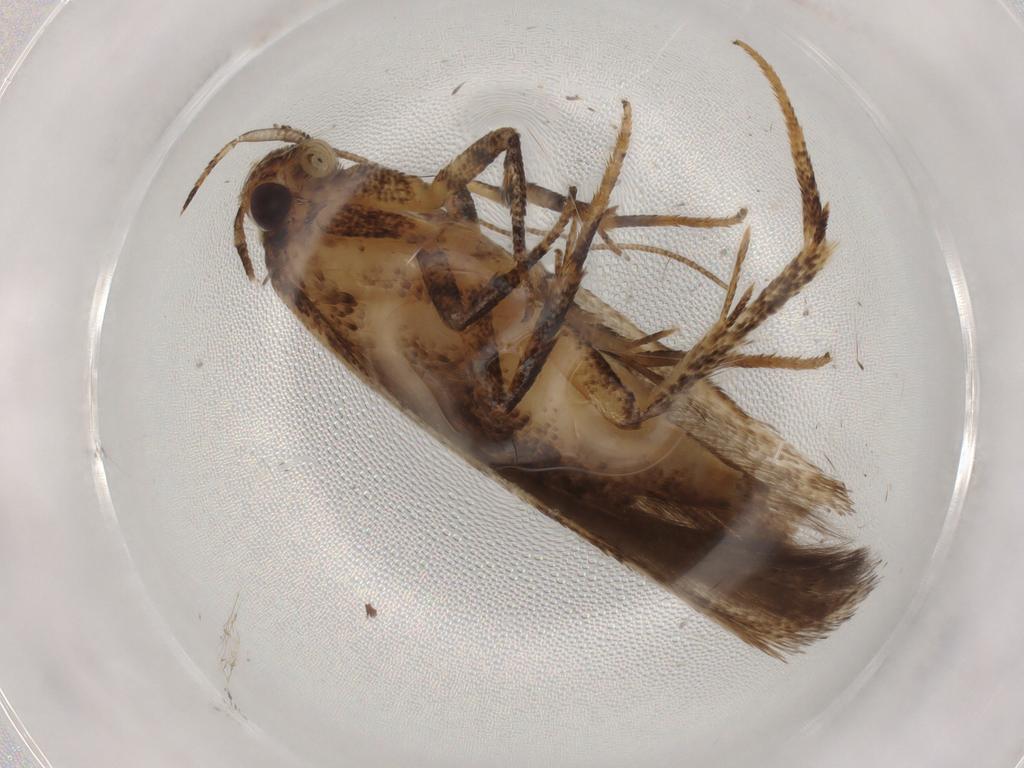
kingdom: Animalia
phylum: Arthropoda
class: Insecta
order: Lepidoptera
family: Gelechiidae
